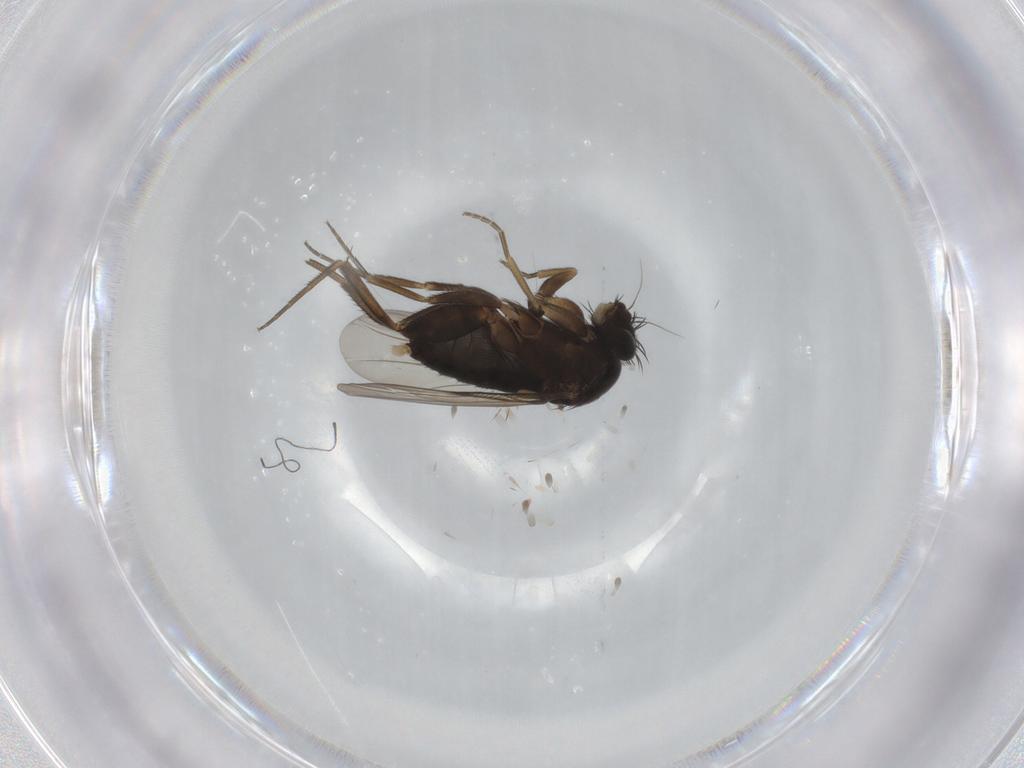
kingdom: Animalia
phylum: Arthropoda
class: Insecta
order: Diptera
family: Phoridae
